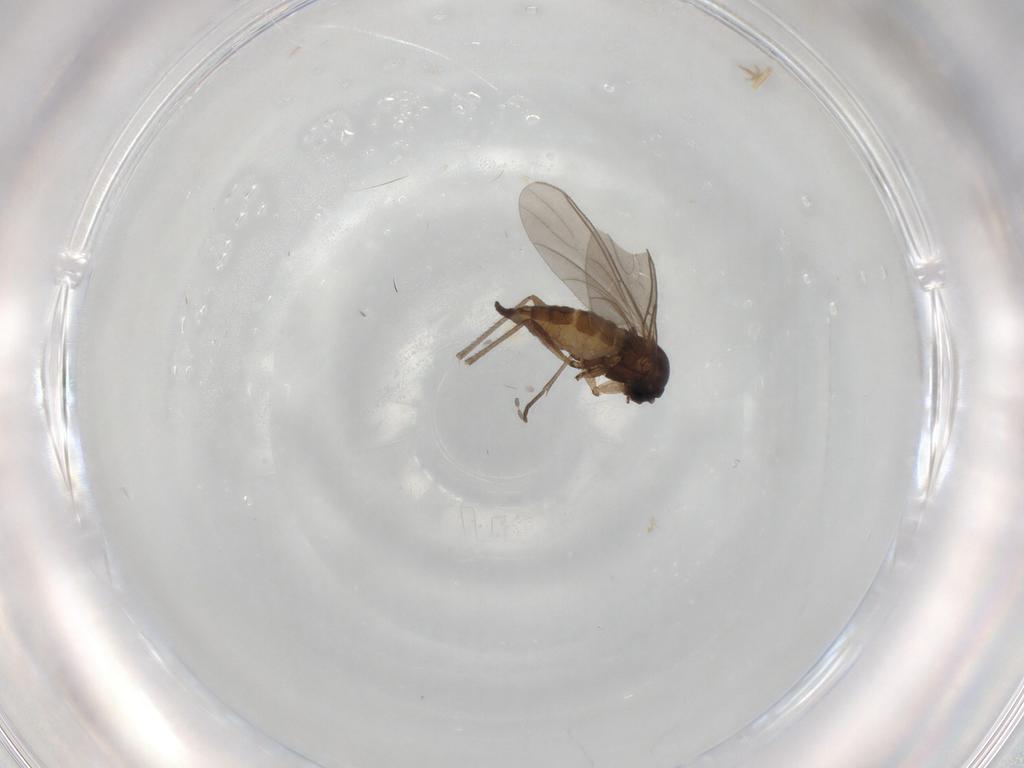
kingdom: Animalia
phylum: Arthropoda
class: Insecta
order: Diptera
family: Sciaridae
